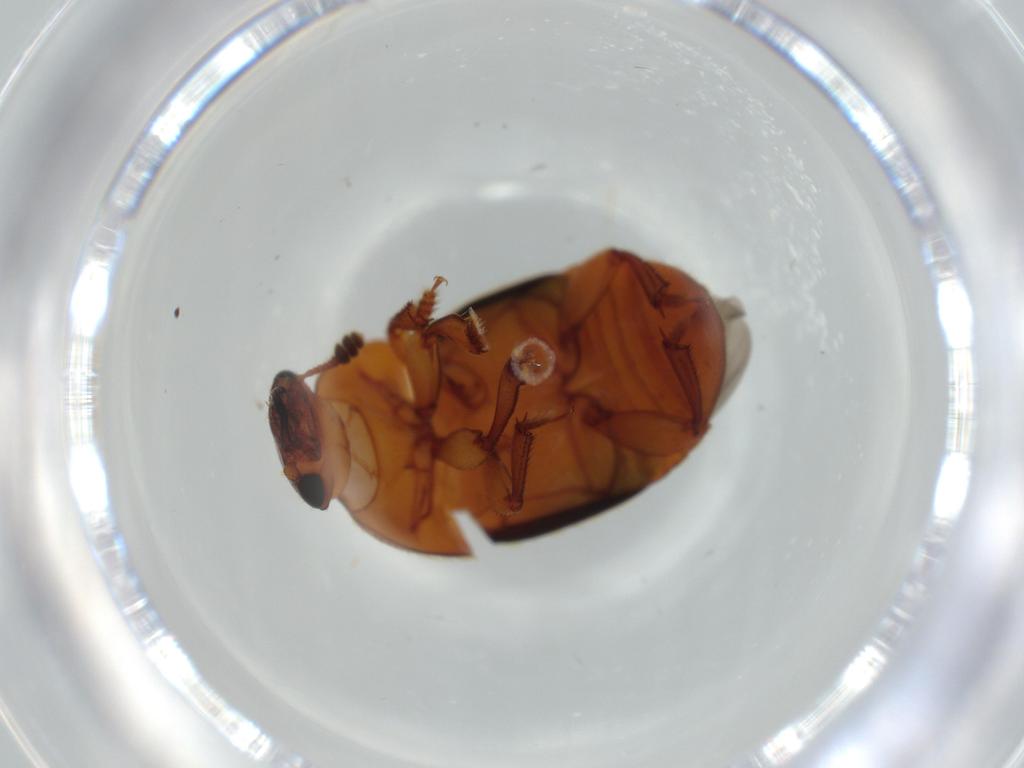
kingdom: Animalia
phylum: Arthropoda
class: Insecta
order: Coleoptera
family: Nitidulidae
